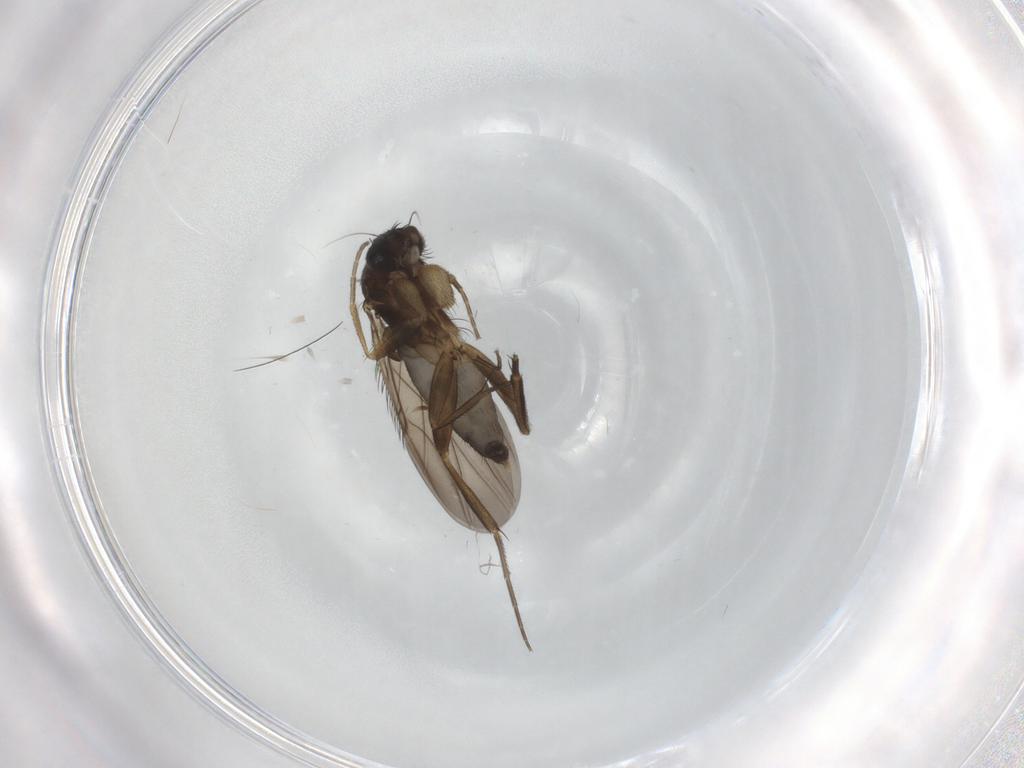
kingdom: Animalia
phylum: Arthropoda
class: Insecta
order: Diptera
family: Phoridae
